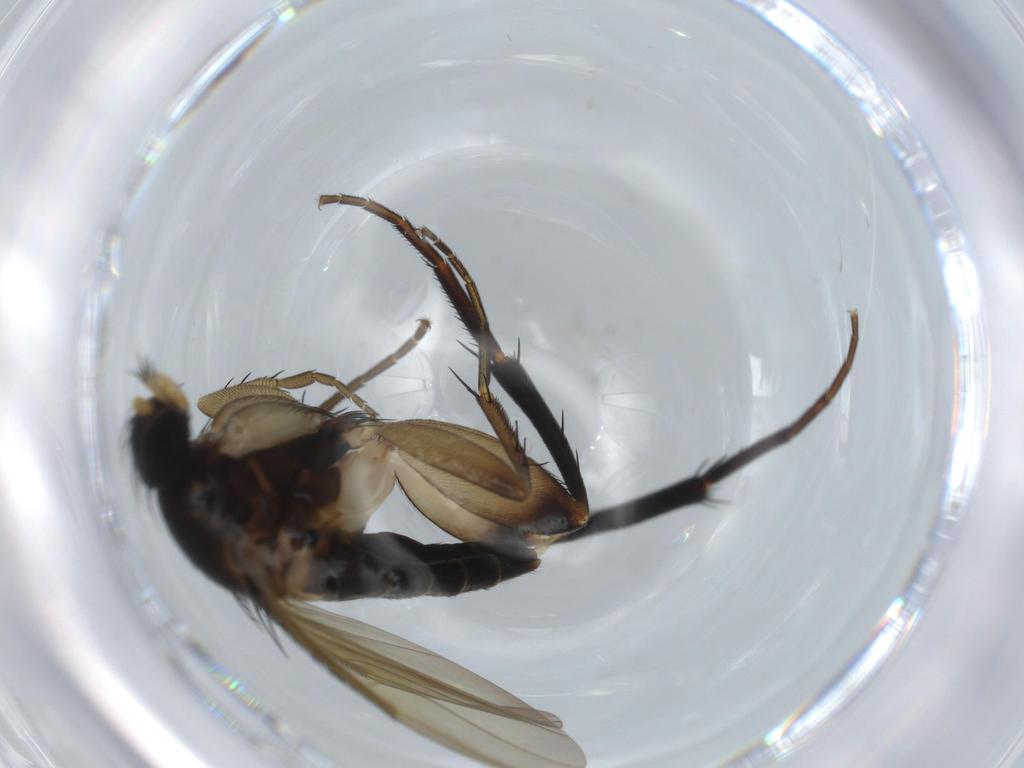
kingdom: Animalia
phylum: Arthropoda
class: Insecta
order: Diptera
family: Phoridae
